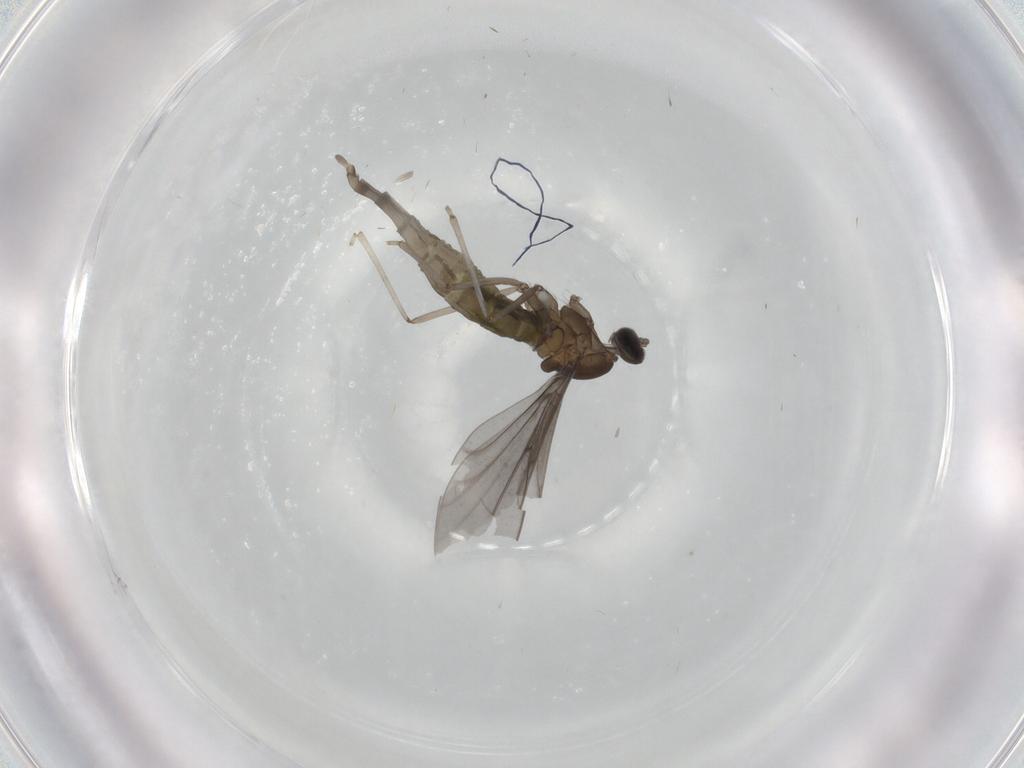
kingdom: Animalia
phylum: Arthropoda
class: Insecta
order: Diptera
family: Cecidomyiidae
